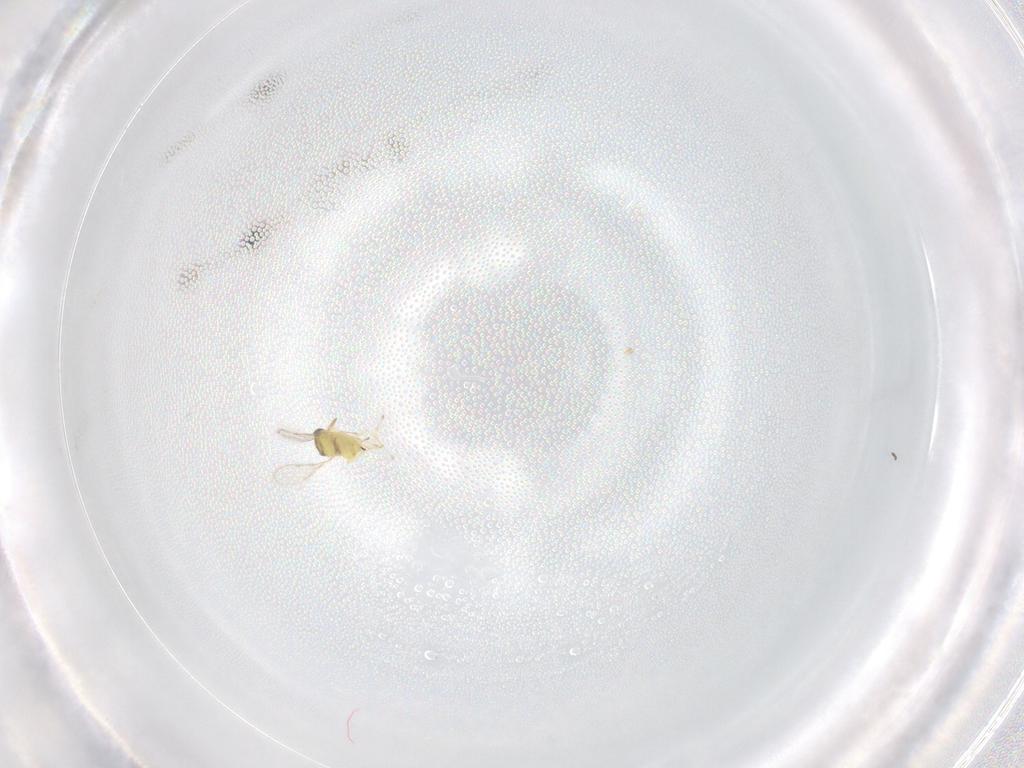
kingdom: Animalia
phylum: Arthropoda
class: Insecta
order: Hymenoptera
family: Aphelinidae
